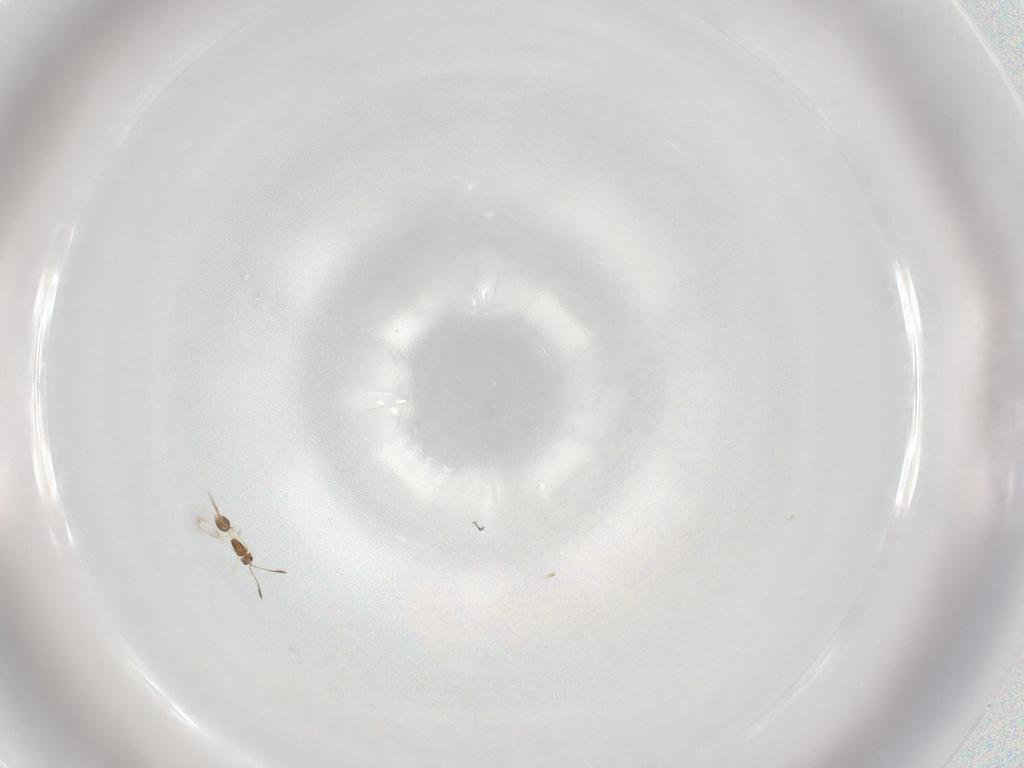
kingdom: Animalia
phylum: Arthropoda
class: Insecta
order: Hymenoptera
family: Mymarommatidae
